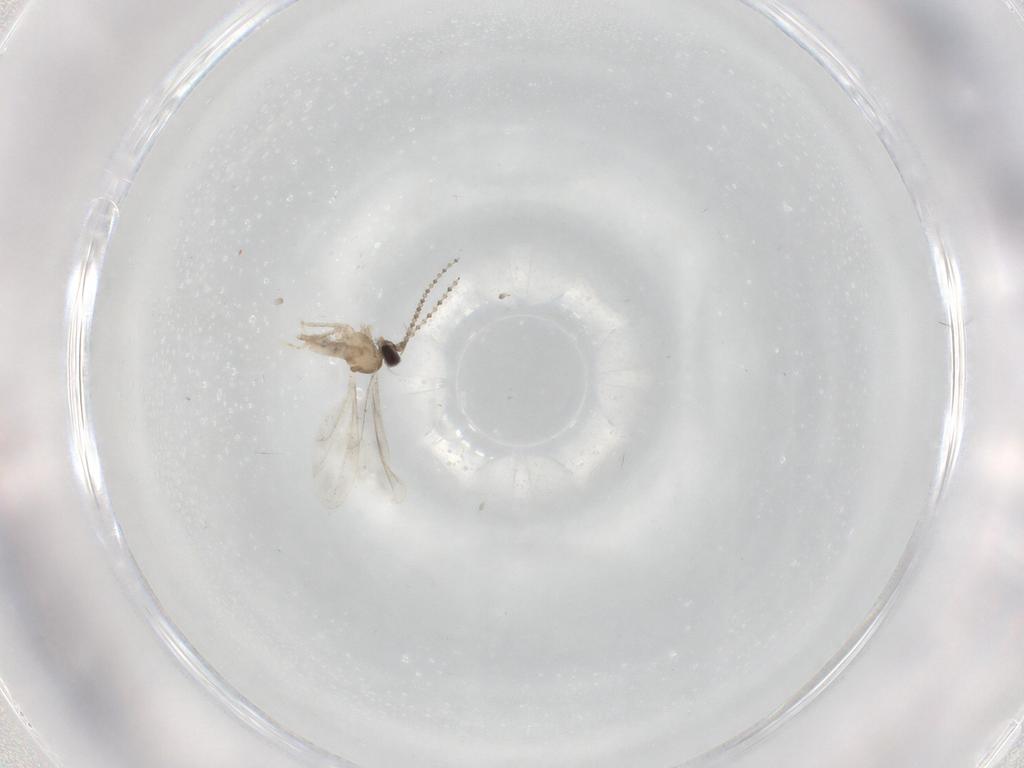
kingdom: Animalia
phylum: Arthropoda
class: Insecta
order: Diptera
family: Cecidomyiidae
